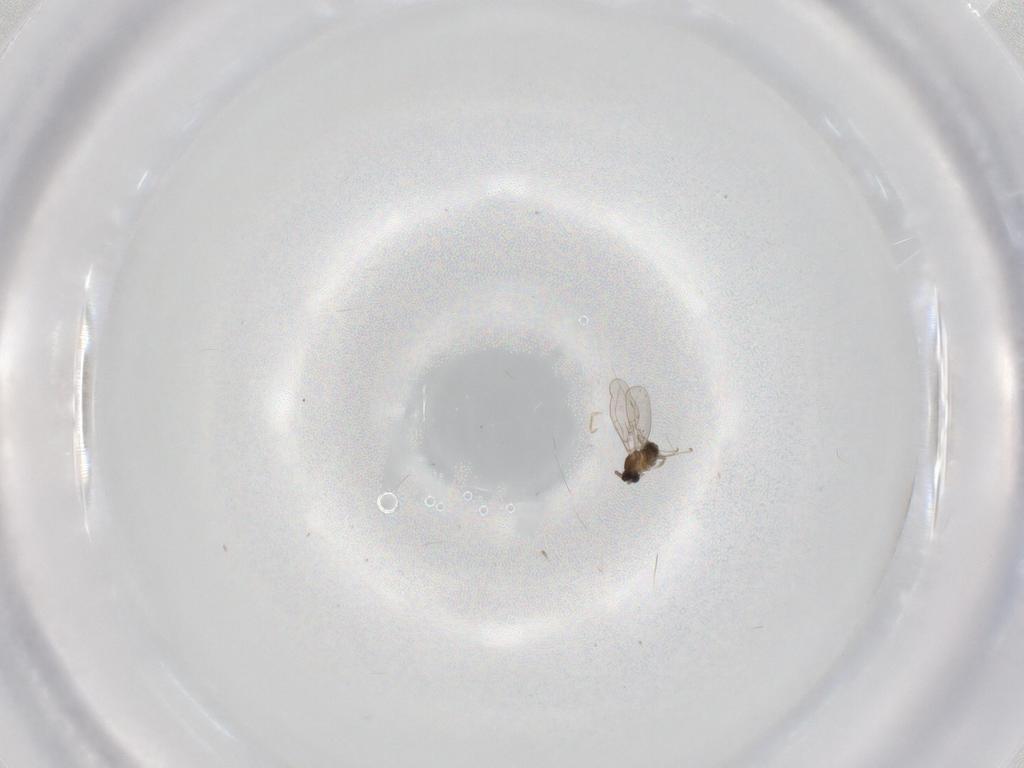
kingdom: Animalia
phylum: Arthropoda
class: Insecta
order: Diptera
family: Cecidomyiidae
